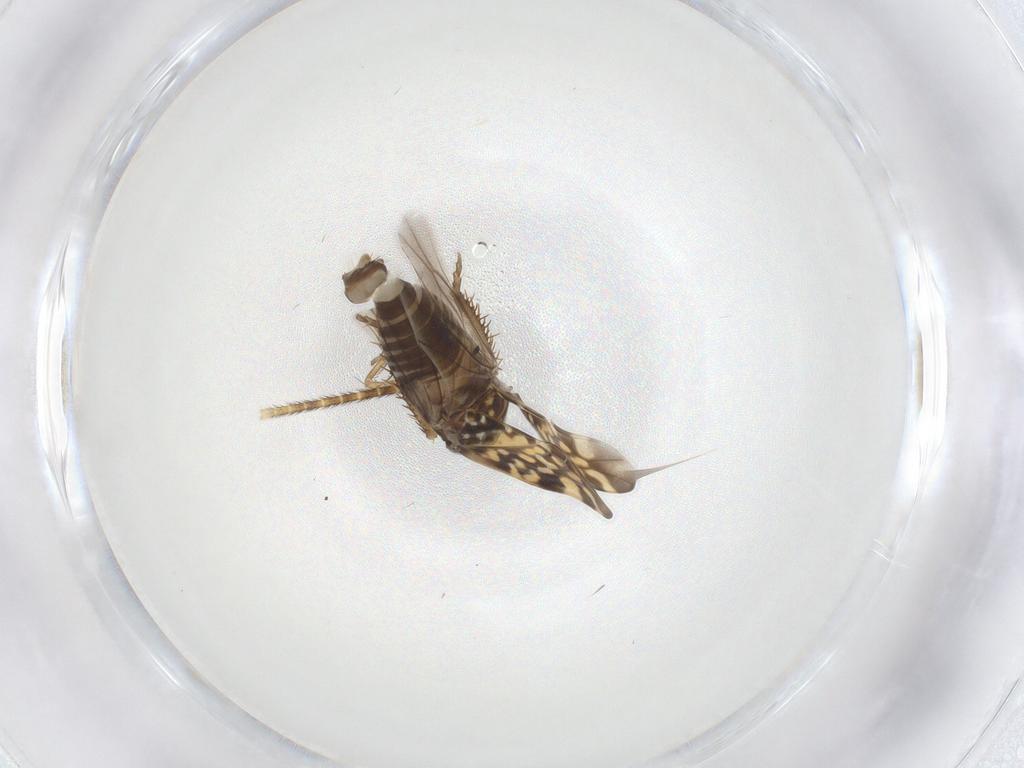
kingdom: Animalia
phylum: Arthropoda
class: Insecta
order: Hemiptera
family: Cicadellidae
